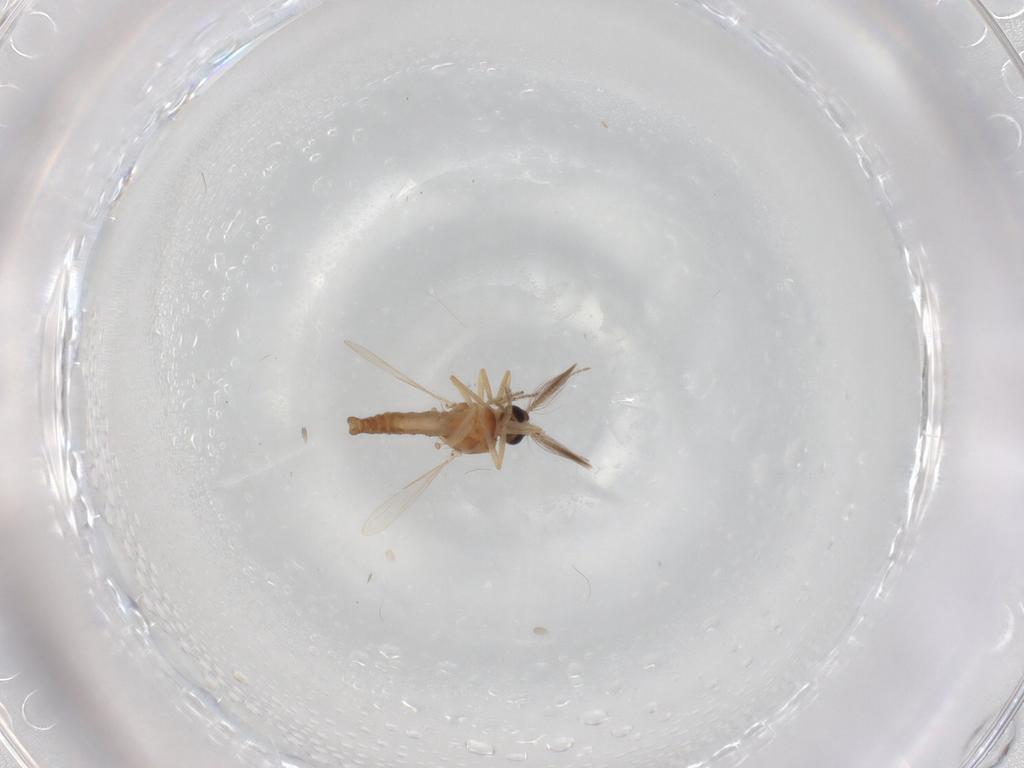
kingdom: Animalia
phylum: Arthropoda
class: Insecta
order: Diptera
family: Ceratopogonidae
